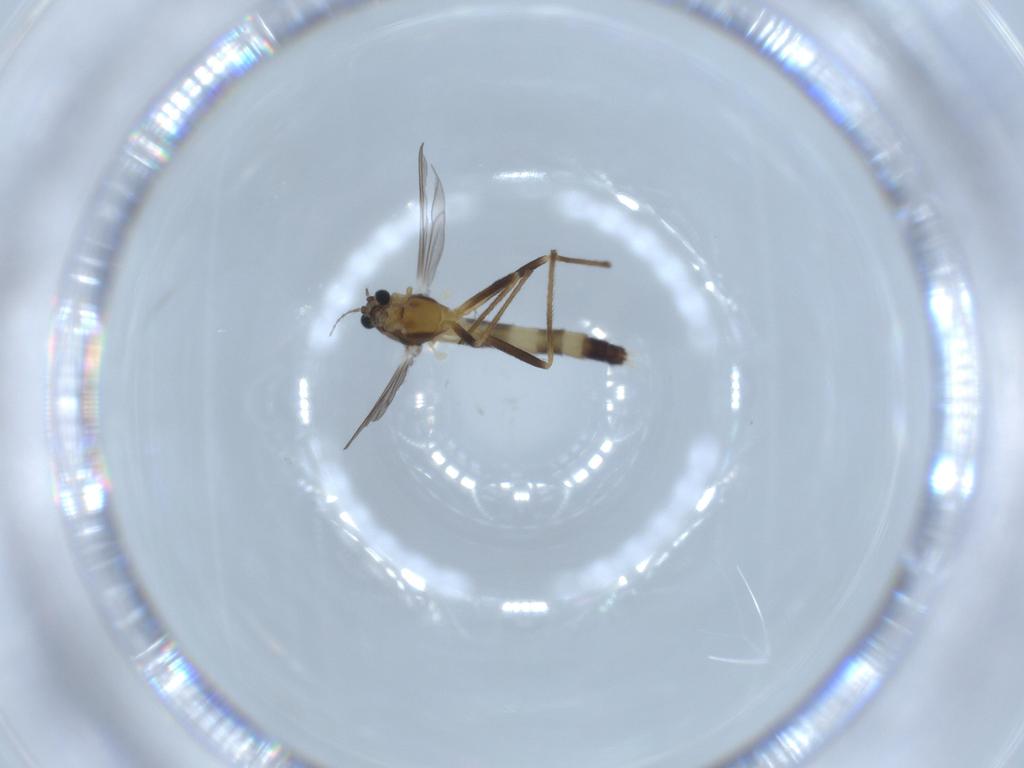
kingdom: Animalia
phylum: Arthropoda
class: Insecta
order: Diptera
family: Chironomidae
